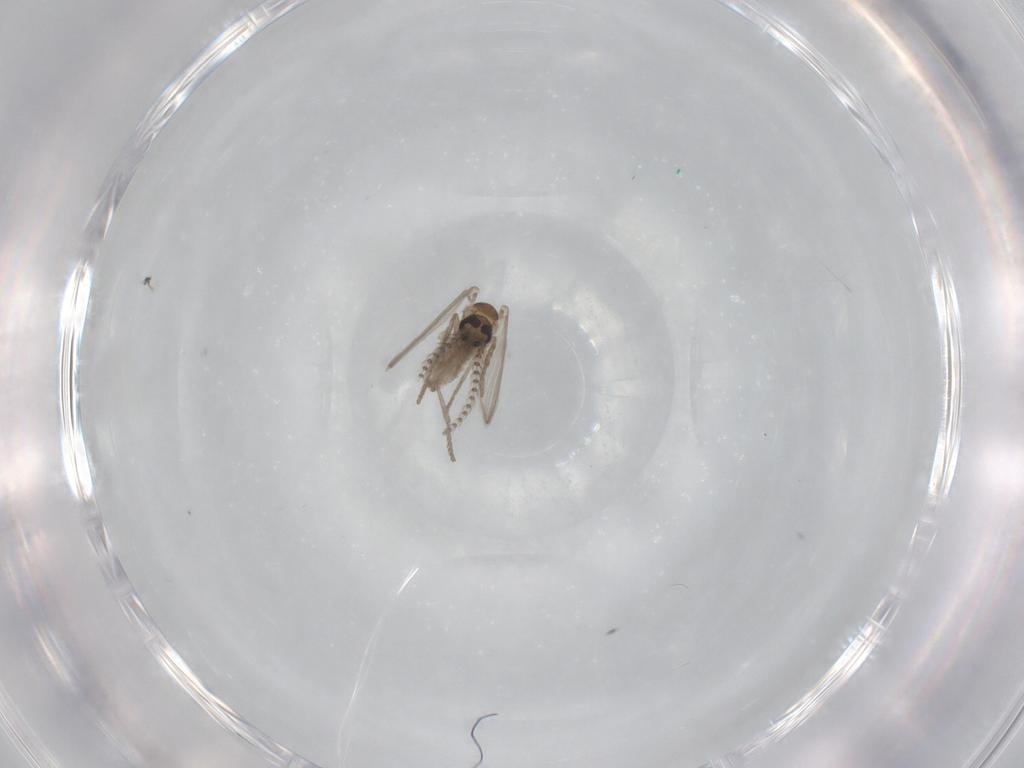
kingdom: Animalia
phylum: Arthropoda
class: Insecta
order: Diptera
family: Psychodidae
